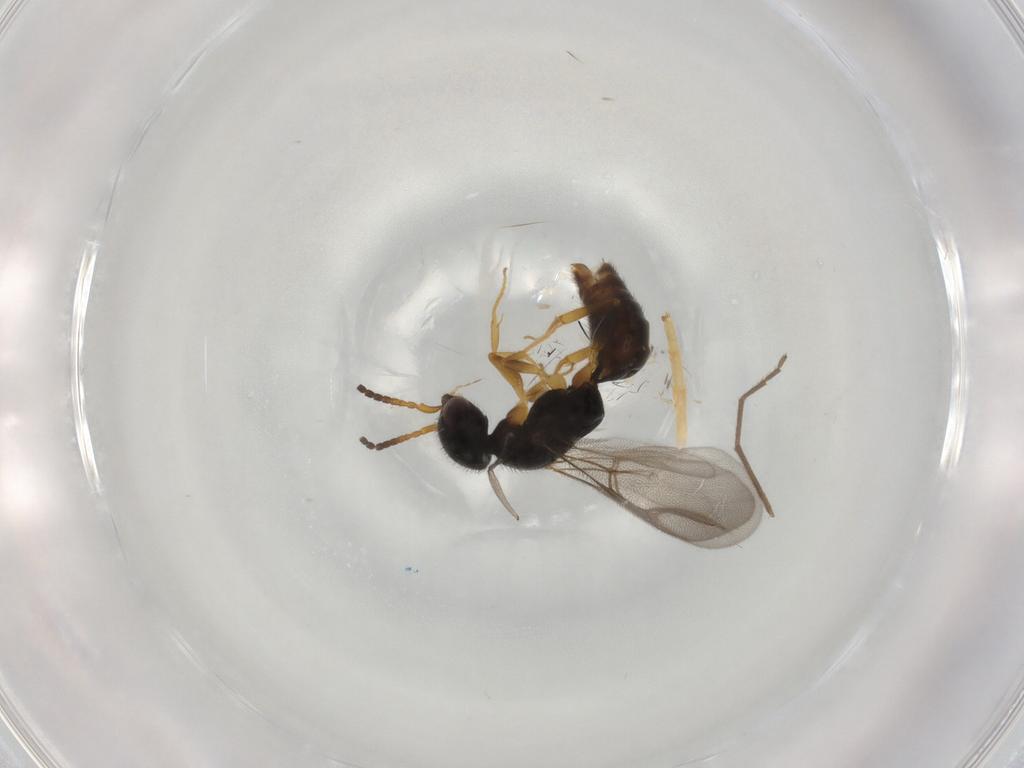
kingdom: Animalia
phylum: Arthropoda
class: Insecta
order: Hymenoptera
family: Bethylidae
